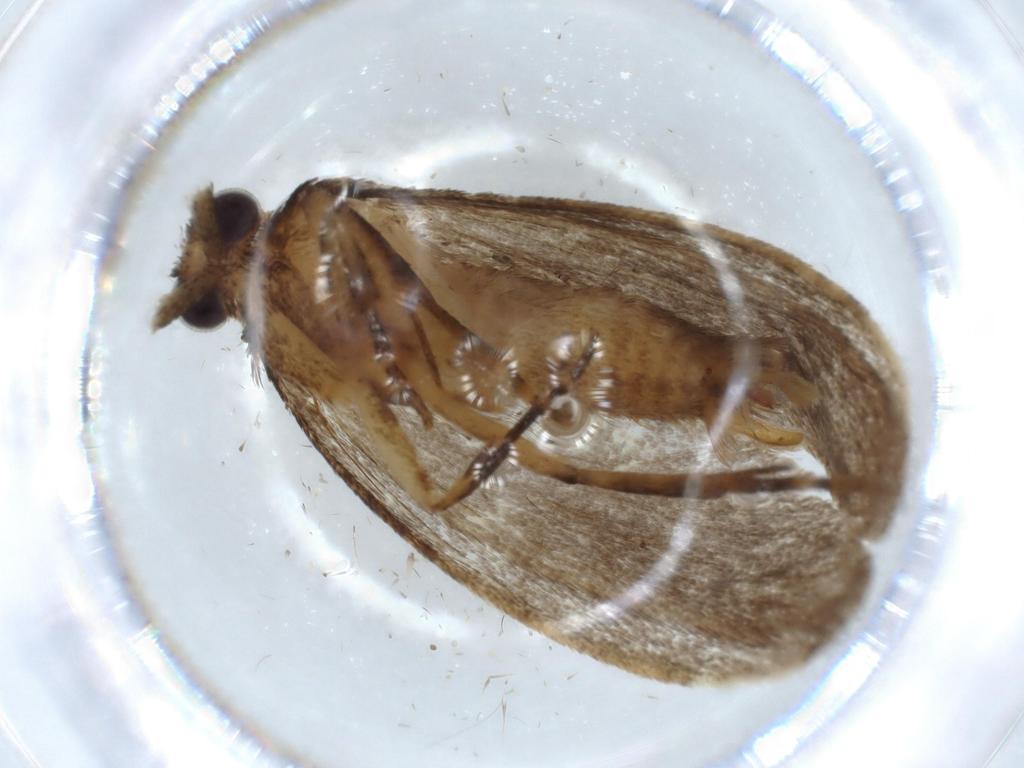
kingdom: Animalia
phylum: Arthropoda
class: Insecta
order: Lepidoptera
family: Tineidae
